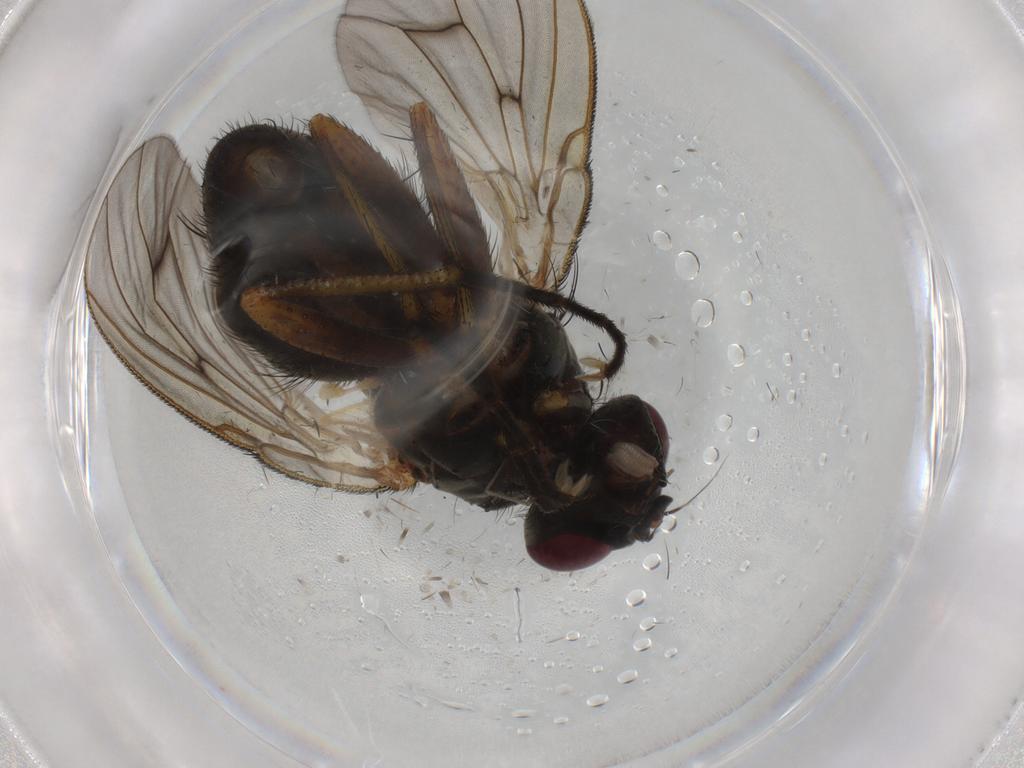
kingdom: Animalia
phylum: Arthropoda
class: Insecta
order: Diptera
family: Muscidae
